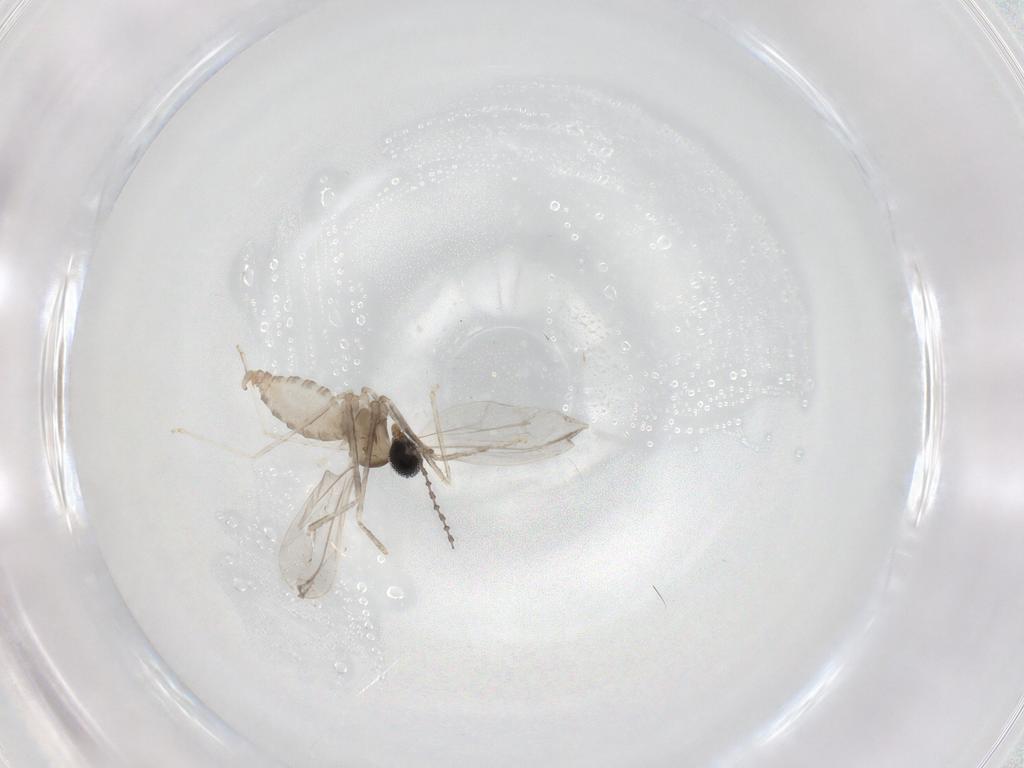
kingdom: Animalia
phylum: Arthropoda
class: Insecta
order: Diptera
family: Cecidomyiidae
